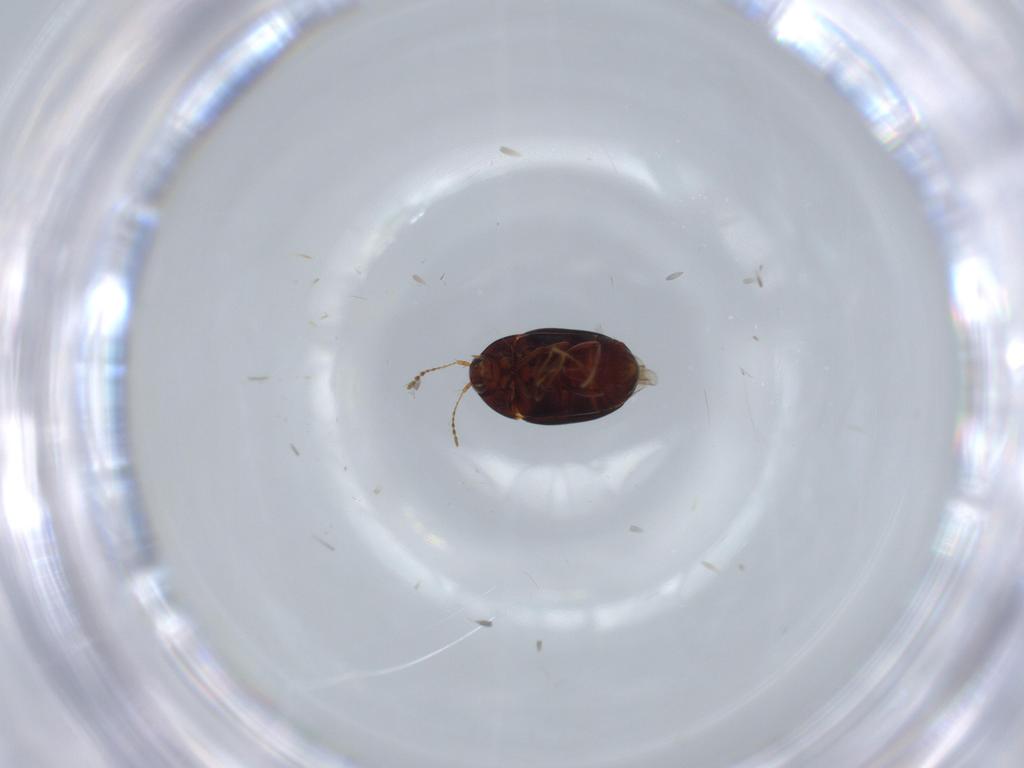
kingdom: Animalia
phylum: Arthropoda
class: Insecta
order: Coleoptera
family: Staphylinidae
